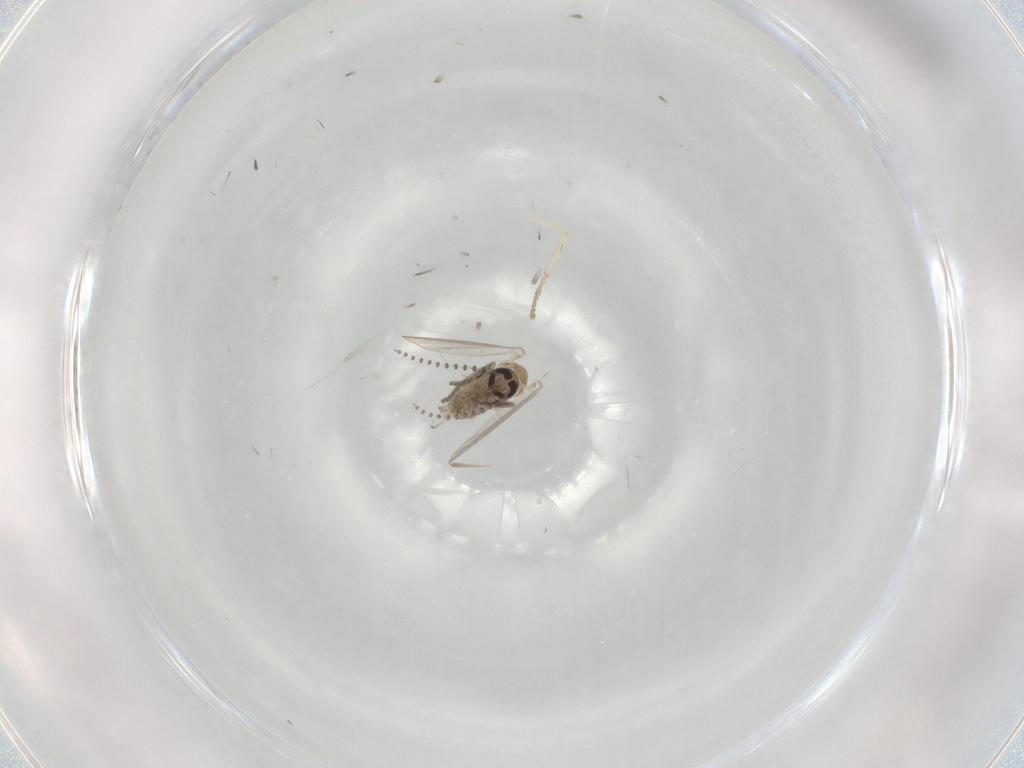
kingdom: Animalia
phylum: Arthropoda
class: Insecta
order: Diptera
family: Psychodidae
